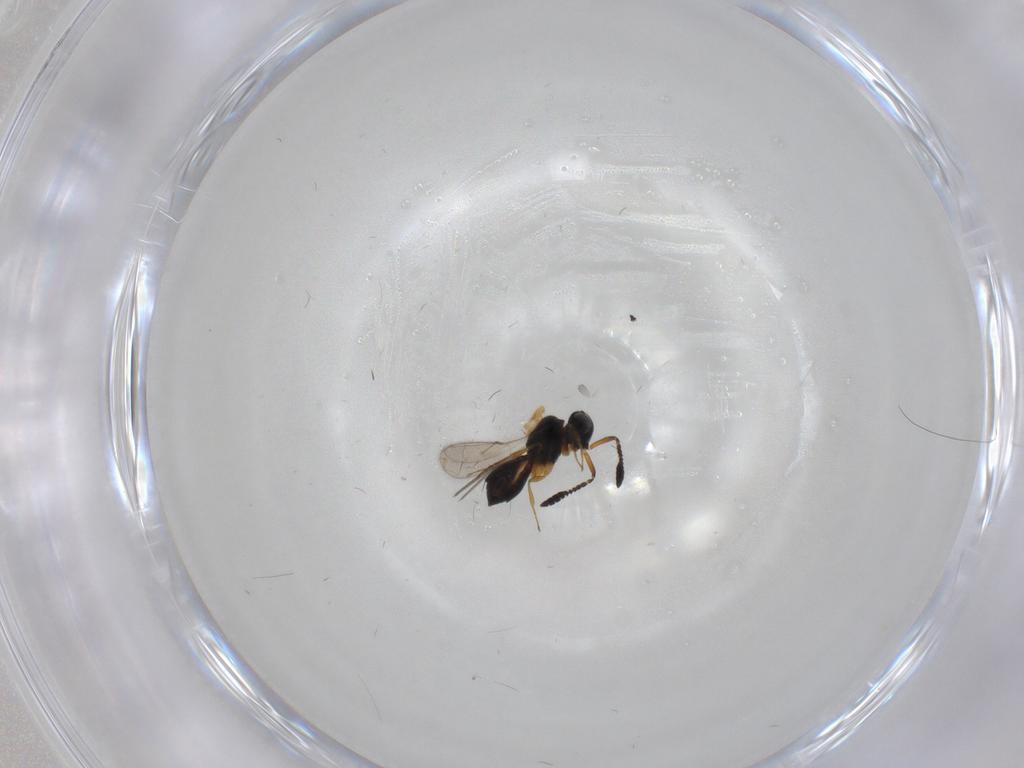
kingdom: Animalia
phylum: Arthropoda
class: Insecta
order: Hymenoptera
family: Scelionidae
